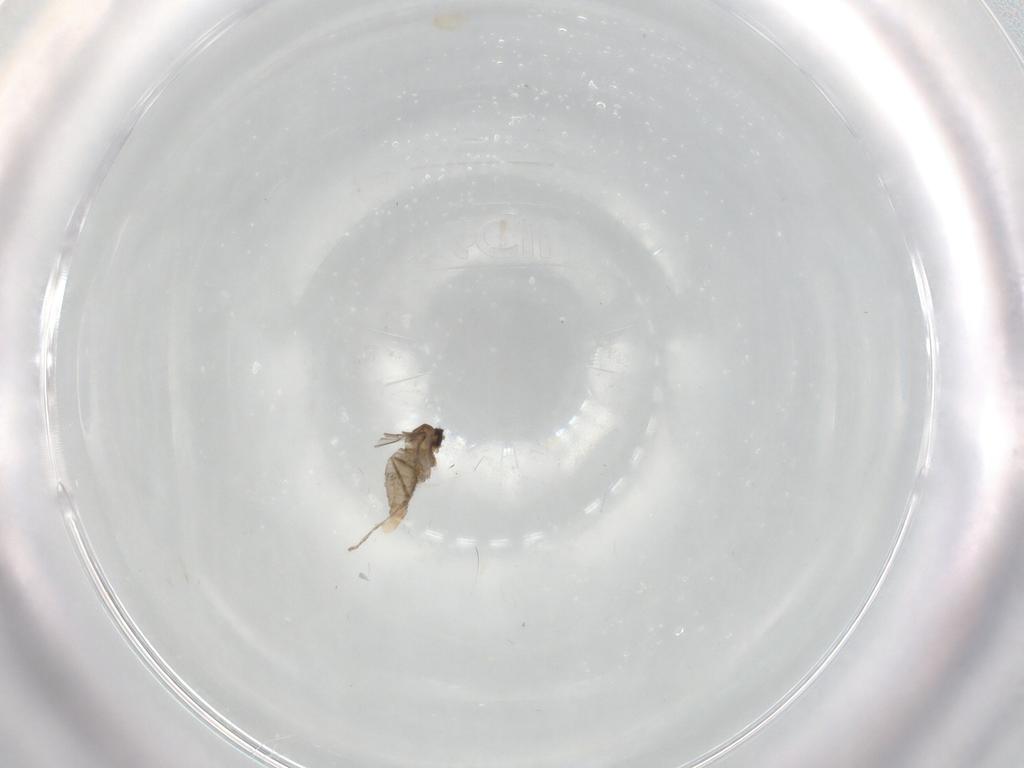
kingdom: Animalia
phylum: Arthropoda
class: Insecta
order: Diptera
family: Cecidomyiidae
